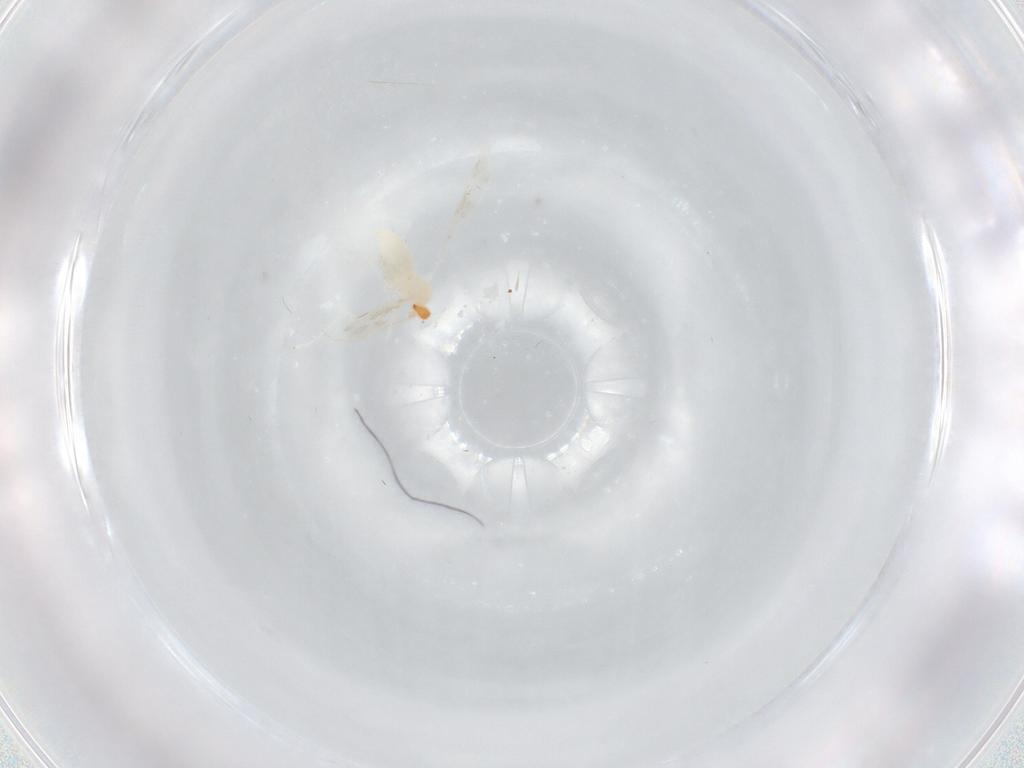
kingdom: Animalia
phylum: Arthropoda
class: Insecta
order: Diptera
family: Cecidomyiidae
